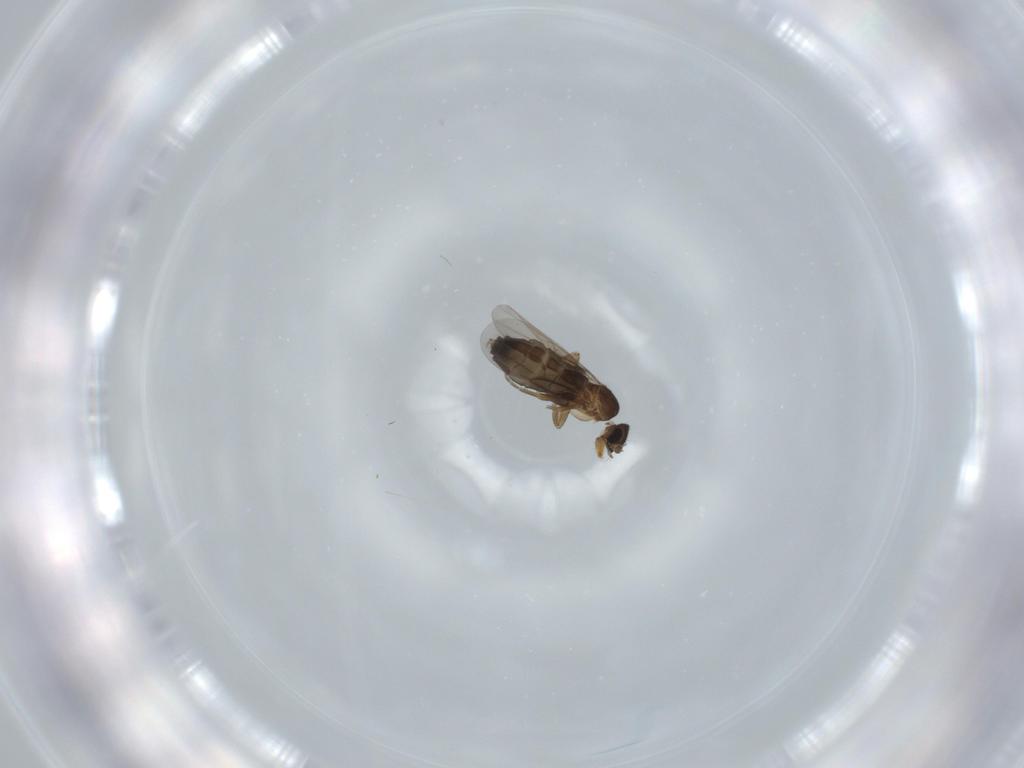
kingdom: Animalia
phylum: Arthropoda
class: Insecta
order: Diptera
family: Phoridae
